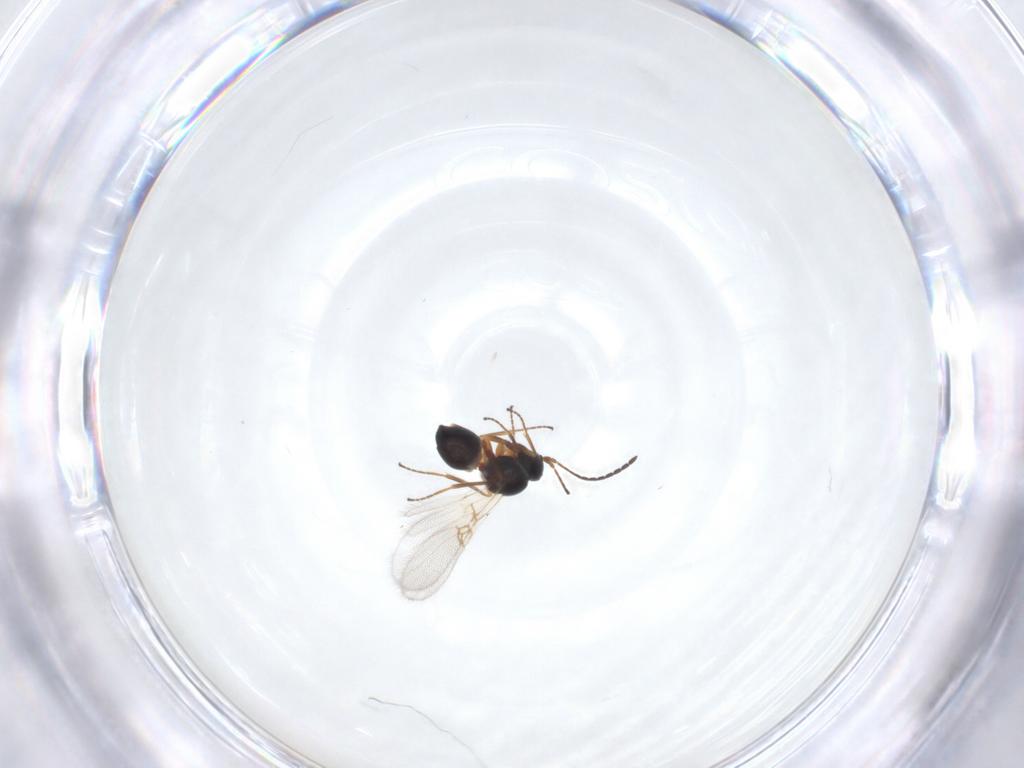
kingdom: Animalia
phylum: Arthropoda
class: Insecta
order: Hymenoptera
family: Figitidae
